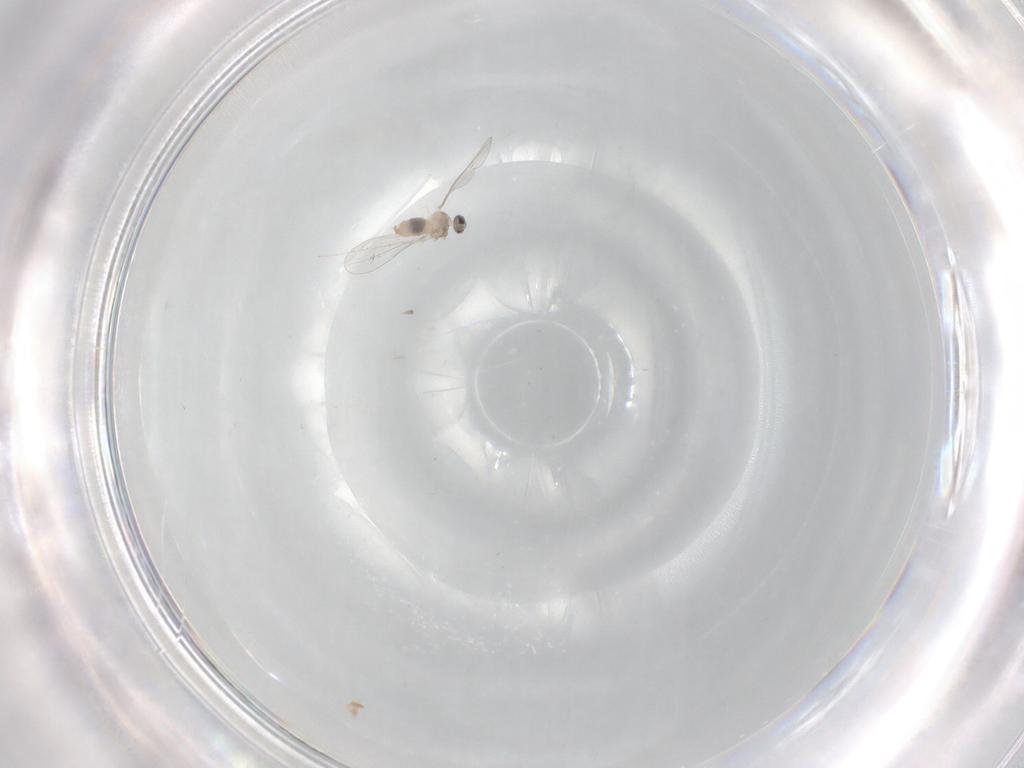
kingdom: Animalia
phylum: Arthropoda
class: Insecta
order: Diptera
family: Cecidomyiidae
